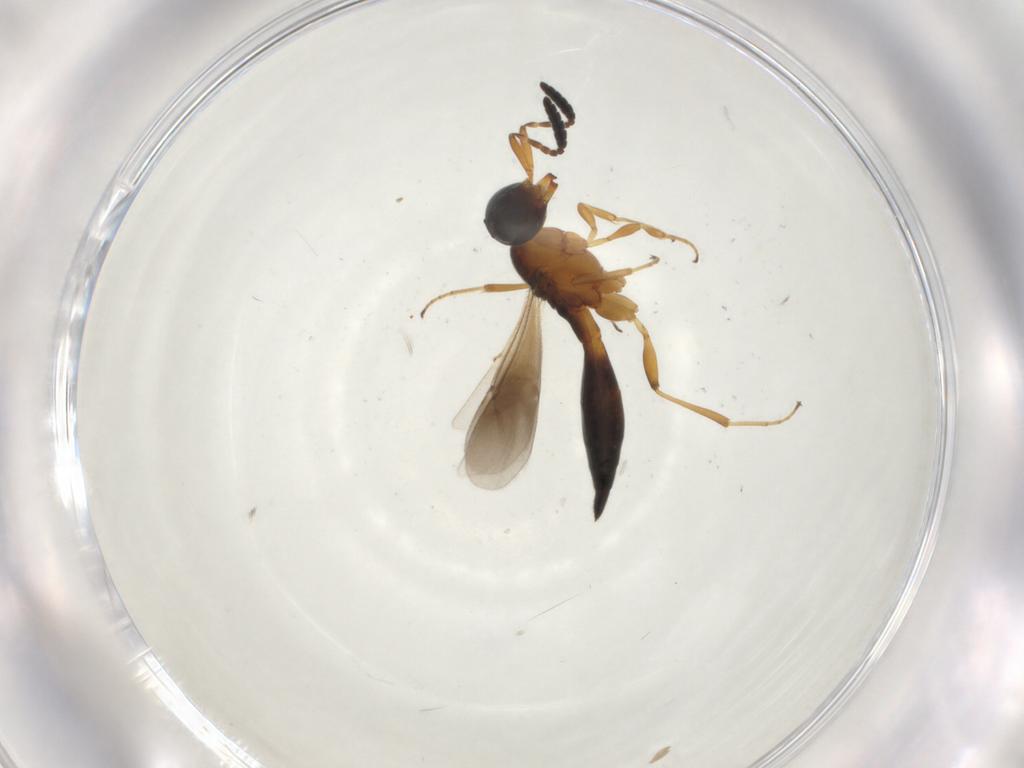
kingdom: Animalia
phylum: Arthropoda
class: Insecta
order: Hymenoptera
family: Scelionidae
